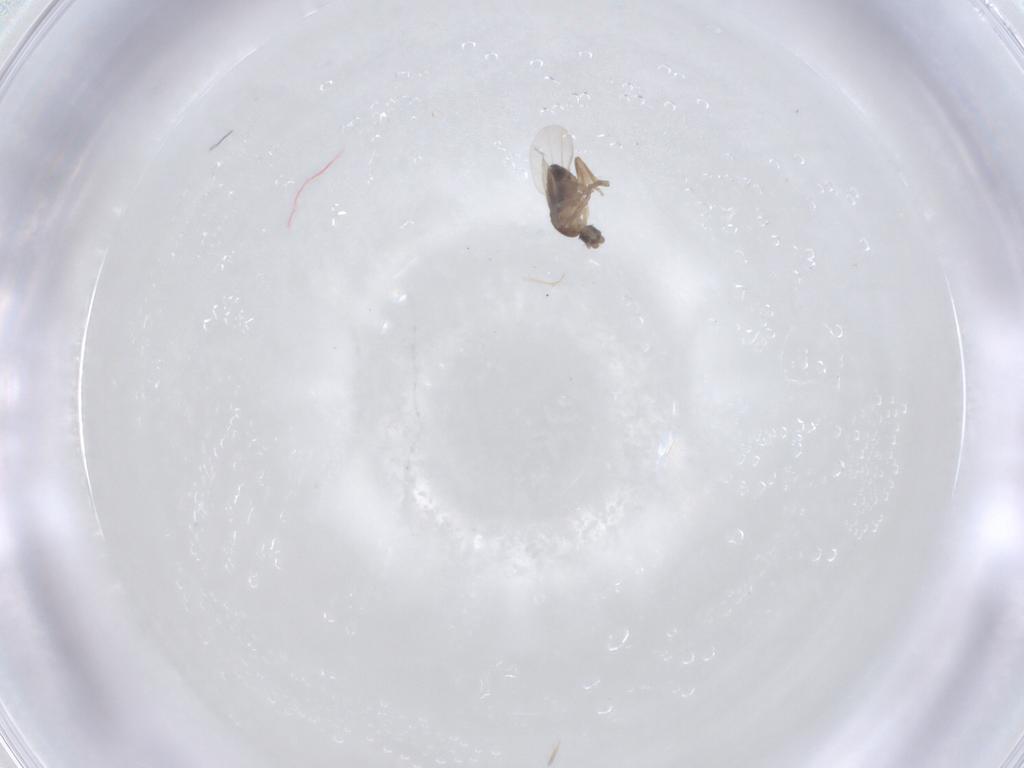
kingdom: Animalia
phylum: Arthropoda
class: Insecta
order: Diptera
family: Phoridae
